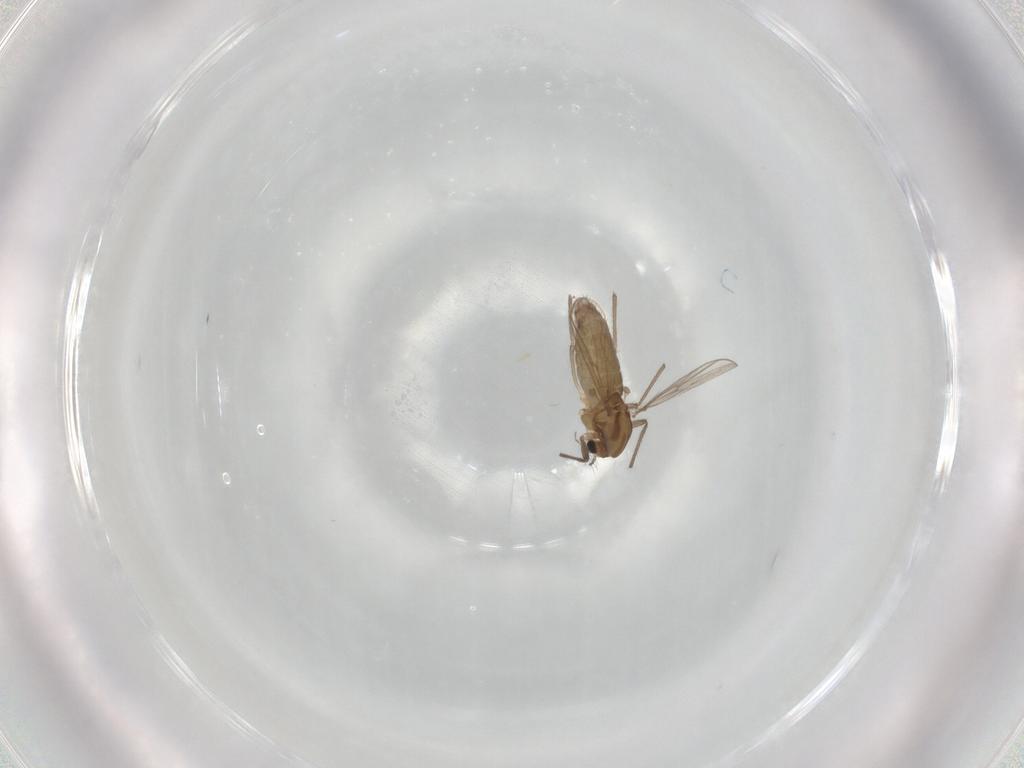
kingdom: Animalia
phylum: Arthropoda
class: Insecta
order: Diptera
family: Chironomidae
